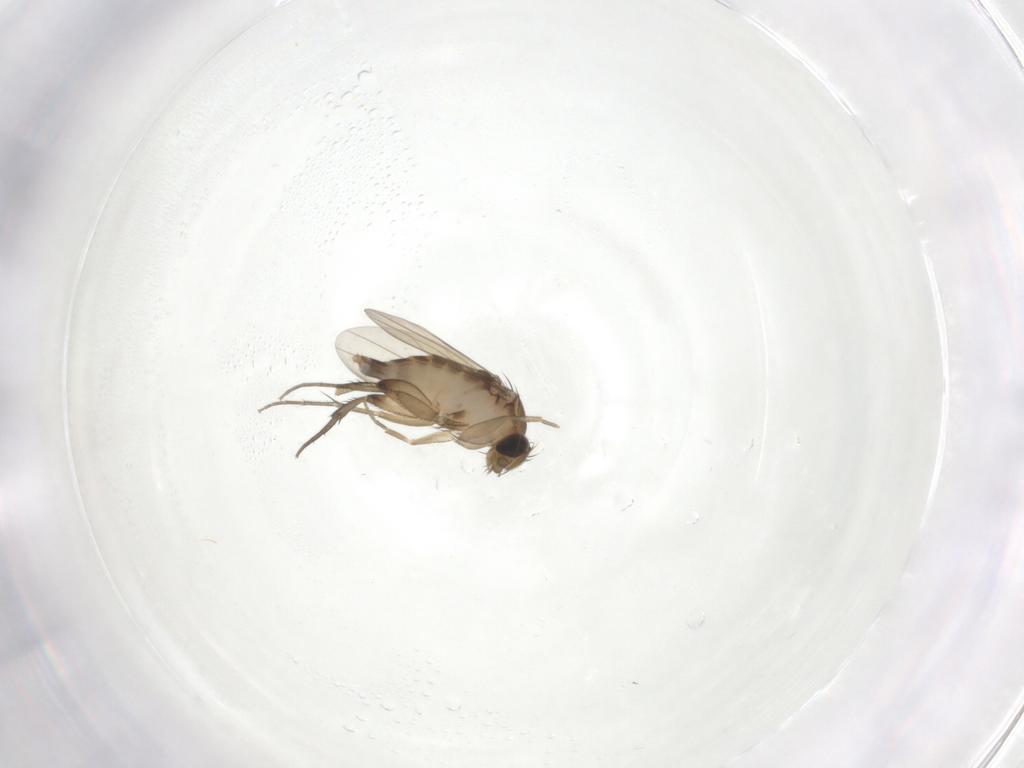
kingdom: Animalia
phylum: Arthropoda
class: Insecta
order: Diptera
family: Phoridae
